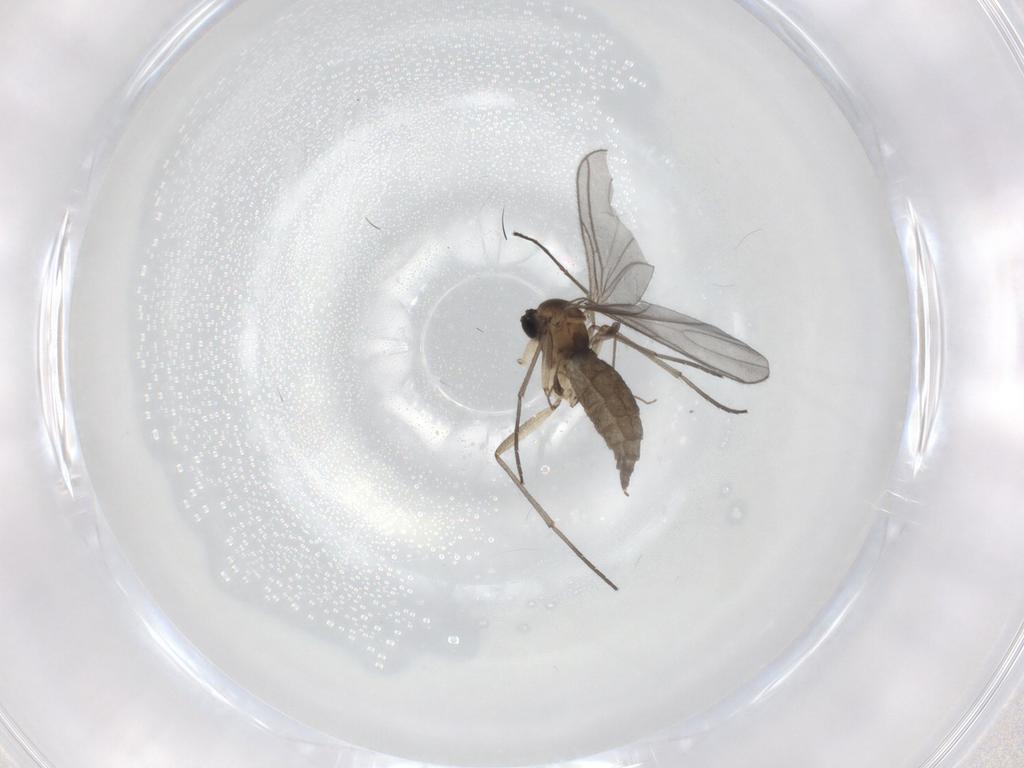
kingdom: Animalia
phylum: Arthropoda
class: Insecta
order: Diptera
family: Sciaridae
